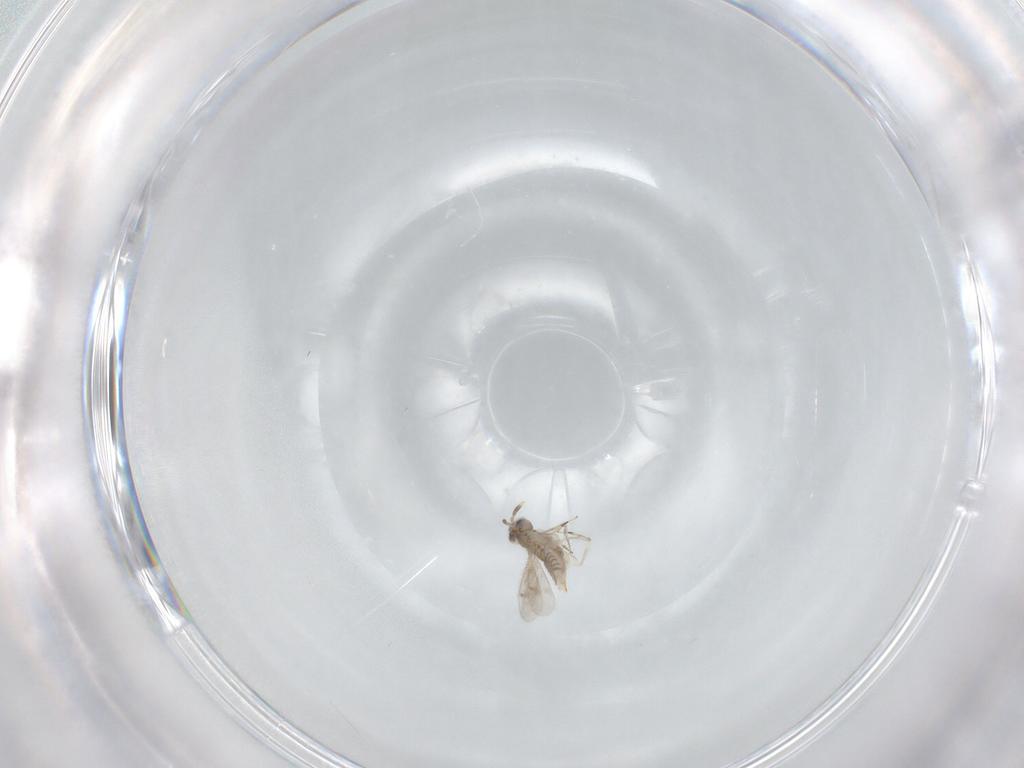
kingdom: Animalia
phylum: Arthropoda
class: Insecta
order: Hymenoptera
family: Aphelinidae
